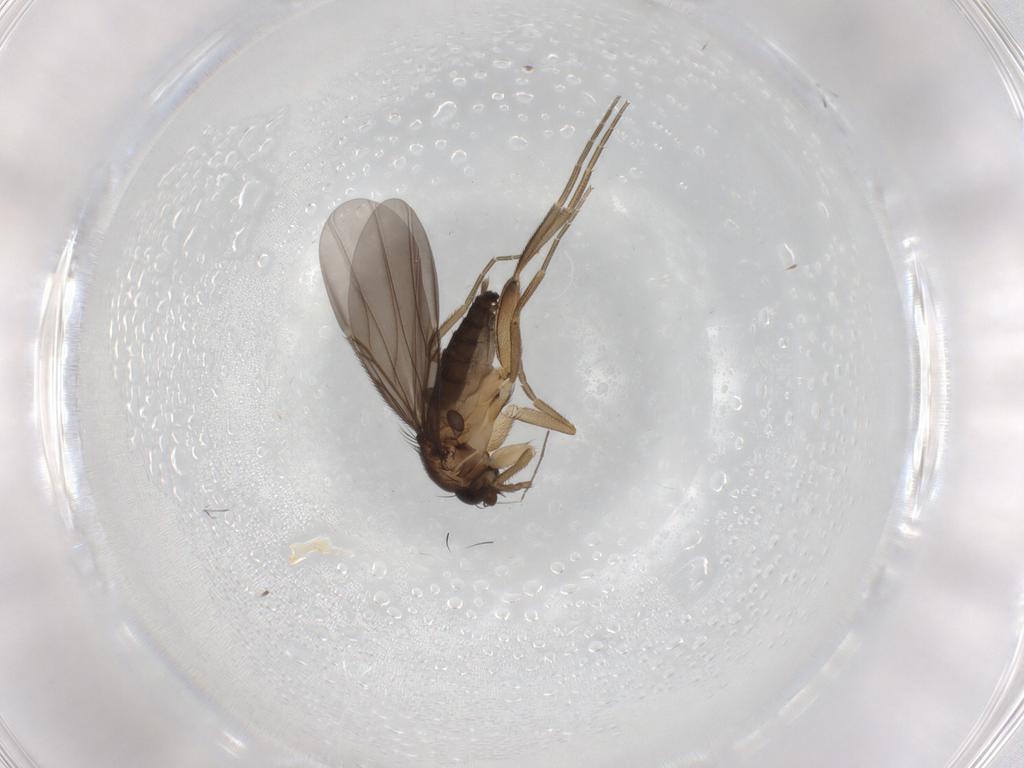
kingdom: Animalia
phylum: Arthropoda
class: Insecta
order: Diptera
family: Phoridae
